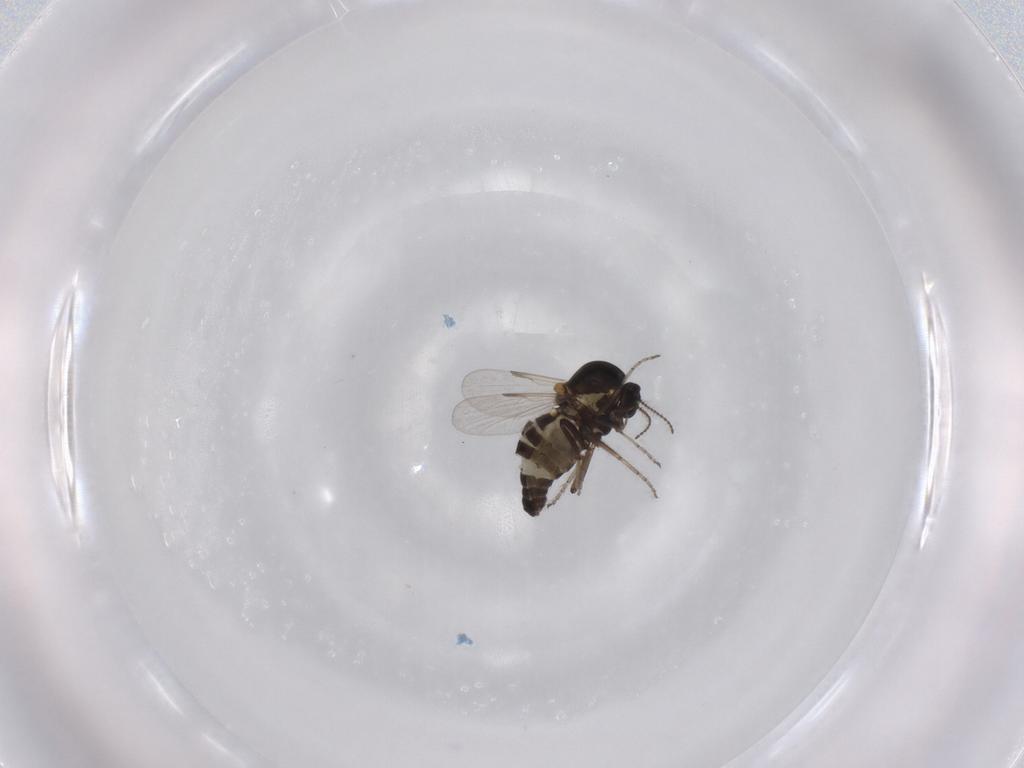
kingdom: Animalia
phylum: Arthropoda
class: Insecta
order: Diptera
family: Ceratopogonidae
